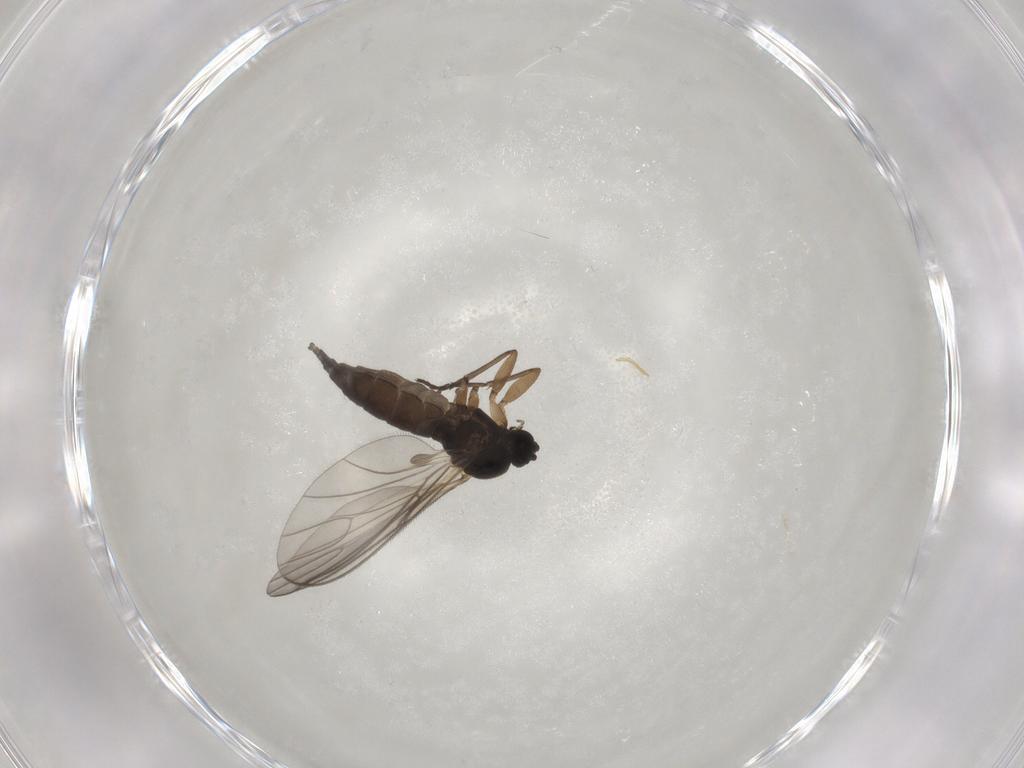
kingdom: Animalia
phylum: Arthropoda
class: Insecta
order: Diptera
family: Sciaridae
